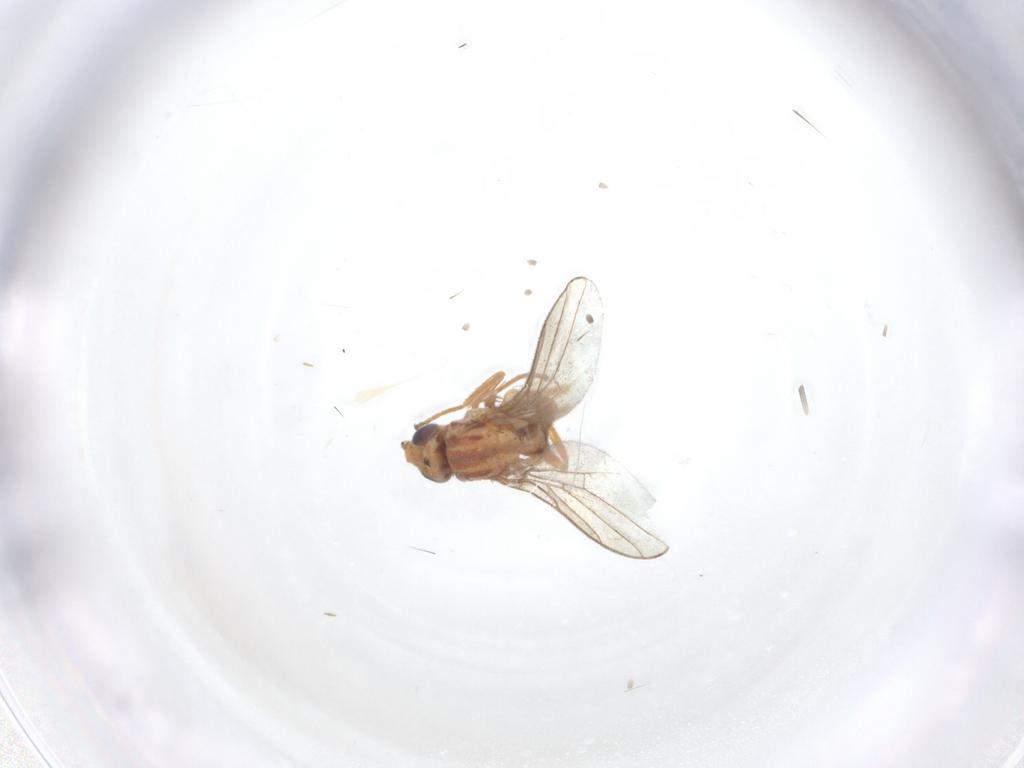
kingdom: Animalia
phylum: Arthropoda
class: Insecta
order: Diptera
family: Chloropidae
